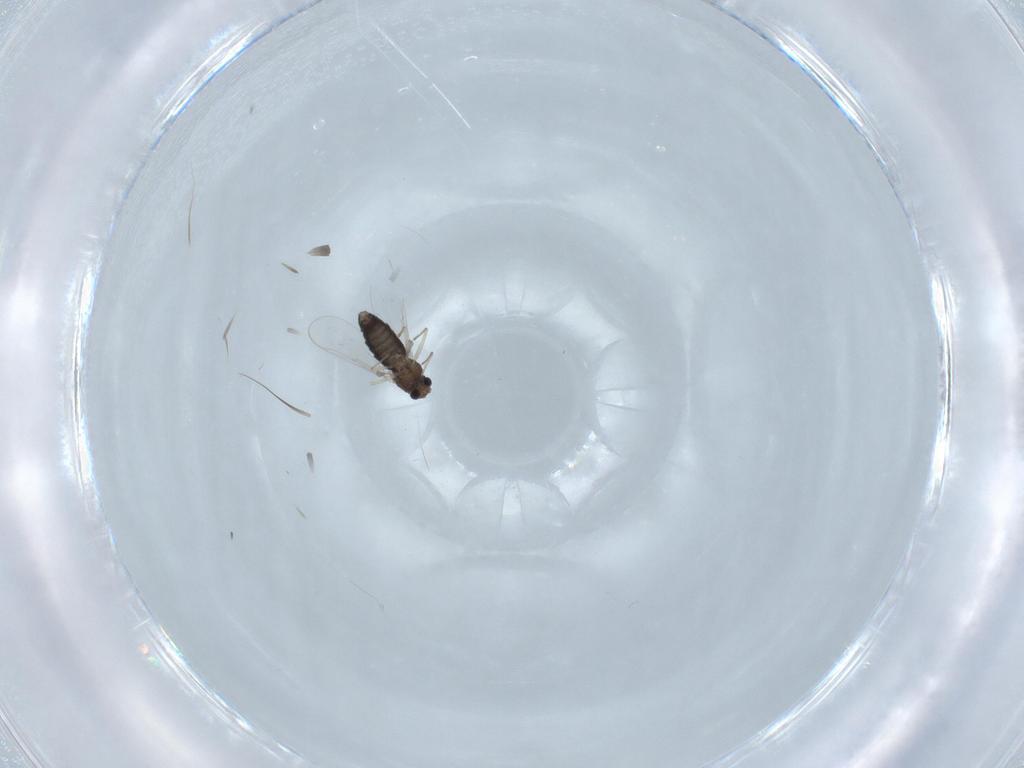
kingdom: Animalia
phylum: Arthropoda
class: Insecta
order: Diptera
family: Chironomidae
